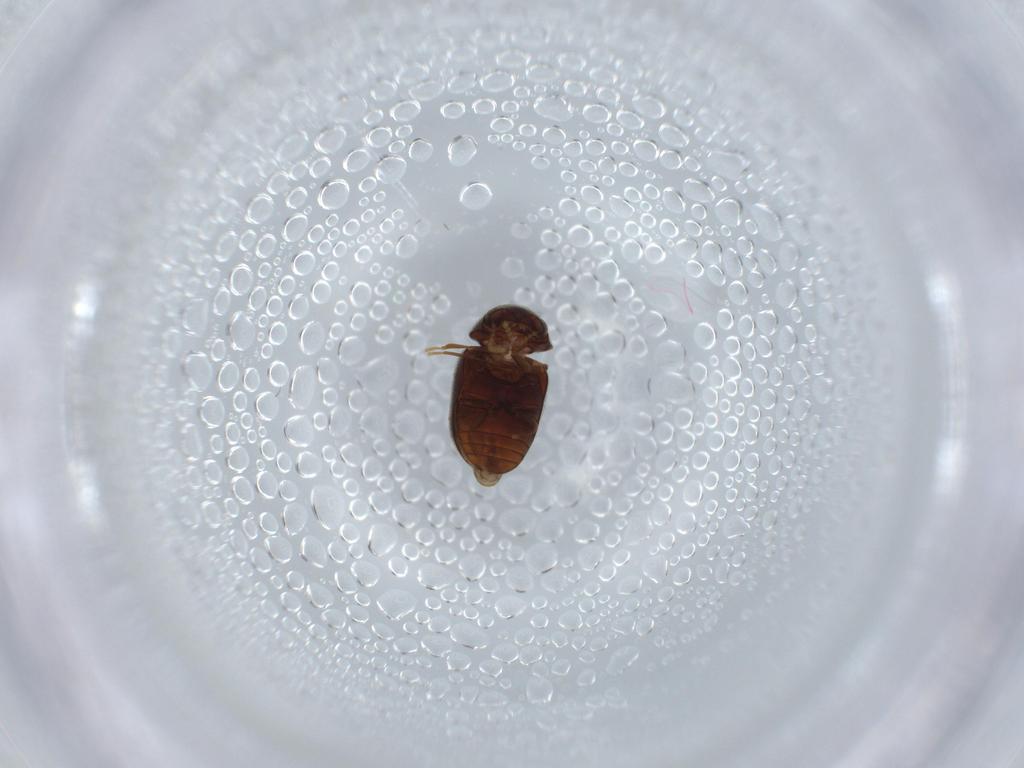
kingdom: Animalia
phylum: Arthropoda
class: Insecta
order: Coleoptera
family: Ptinidae
